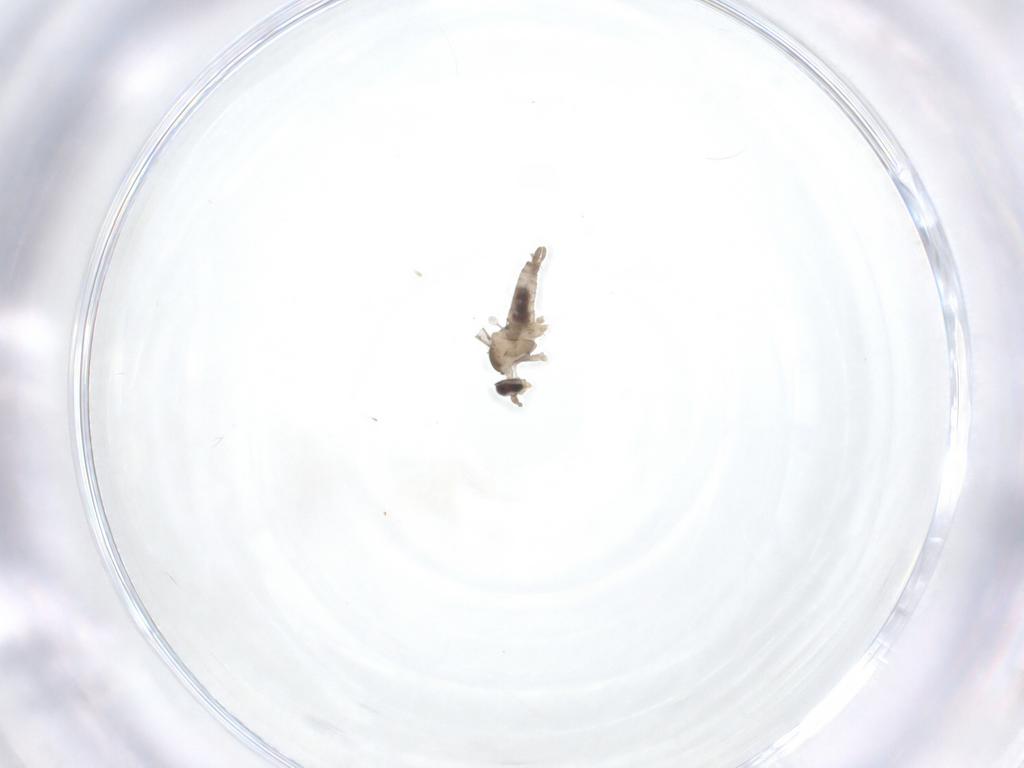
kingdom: Animalia
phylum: Arthropoda
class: Insecta
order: Diptera
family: Cecidomyiidae
